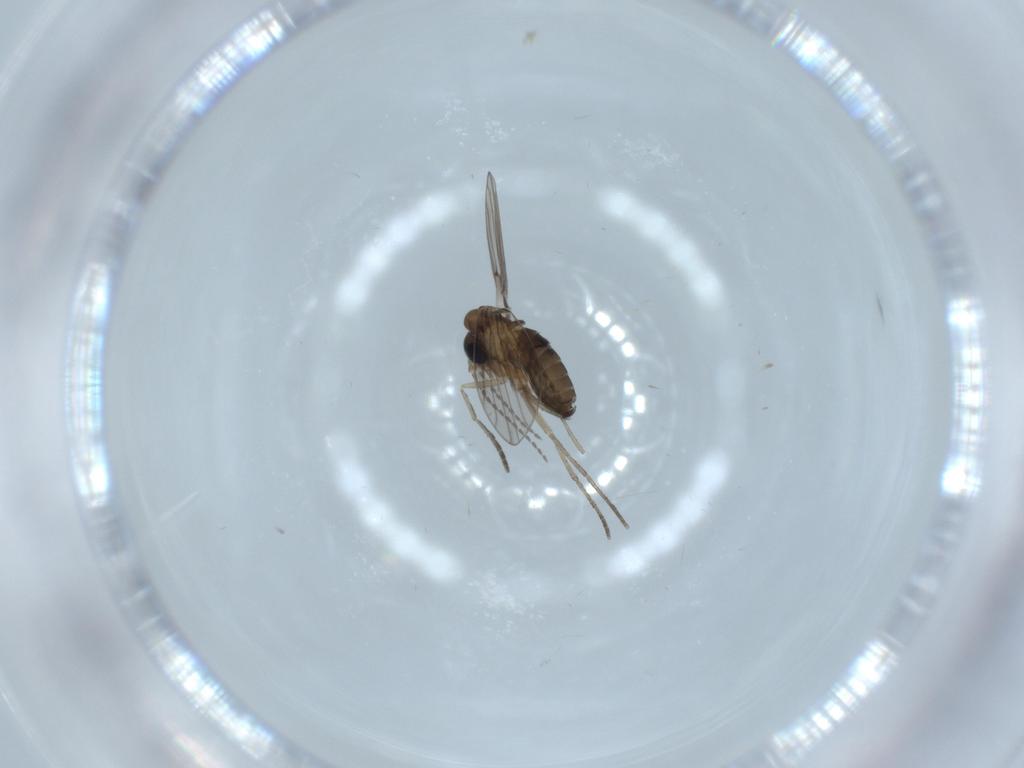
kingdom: Animalia
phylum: Arthropoda
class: Insecta
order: Diptera
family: Psychodidae
